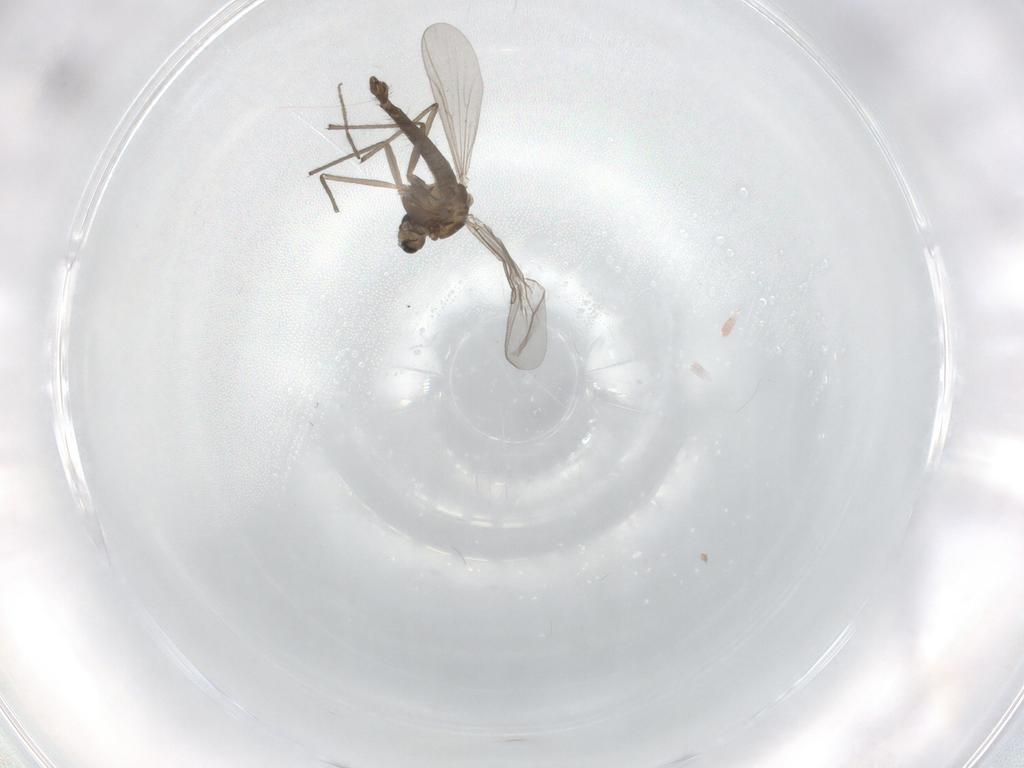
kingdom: Animalia
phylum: Arthropoda
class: Insecta
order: Diptera
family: Chironomidae
